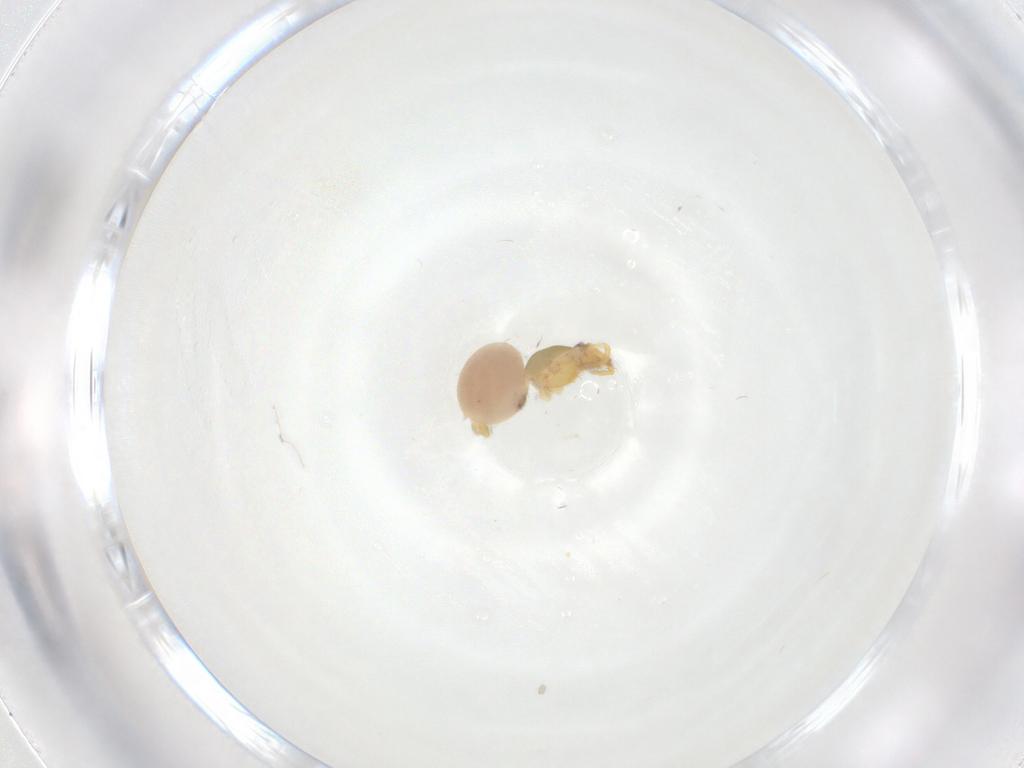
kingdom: Animalia
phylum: Arthropoda
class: Arachnida
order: Araneae
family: Oonopidae
